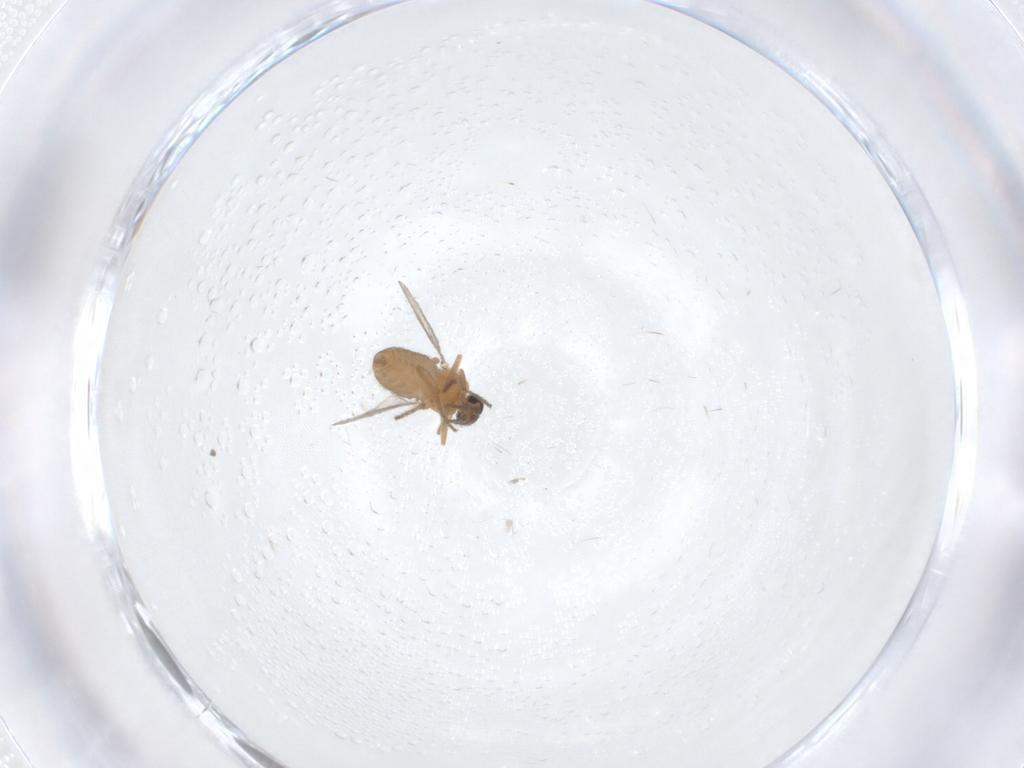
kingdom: Animalia
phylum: Arthropoda
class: Insecta
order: Diptera
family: Ceratopogonidae
